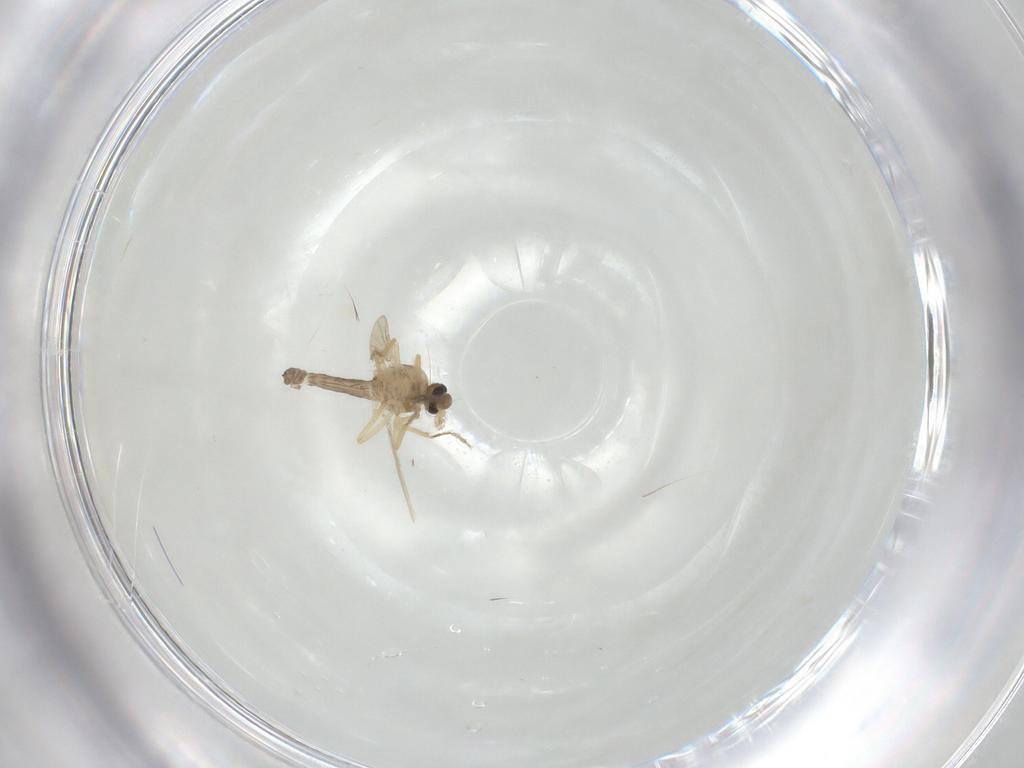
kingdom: Animalia
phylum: Arthropoda
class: Insecta
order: Diptera
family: Ceratopogonidae
